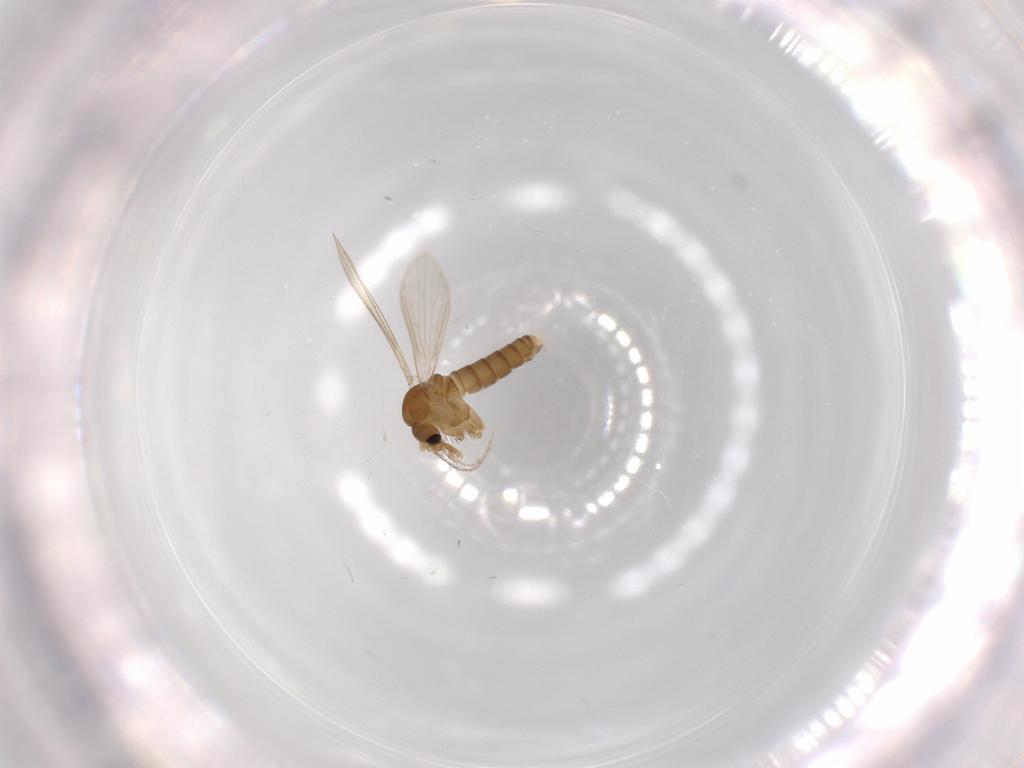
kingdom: Animalia
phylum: Arthropoda
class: Insecta
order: Diptera
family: Psychodidae
